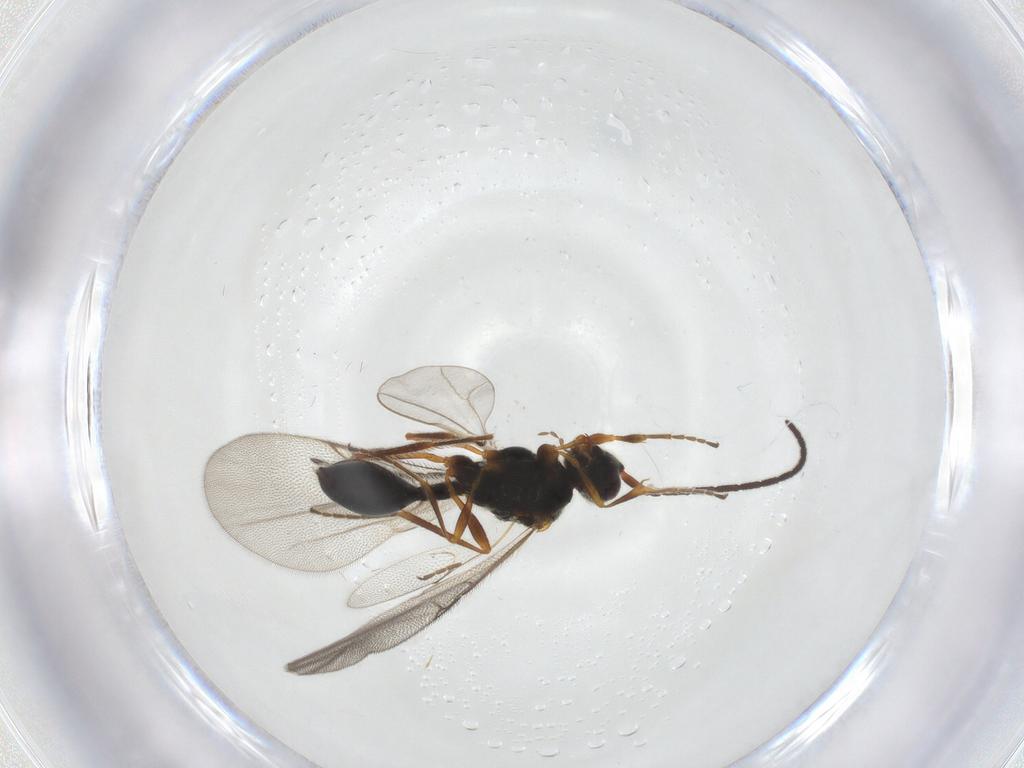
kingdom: Animalia
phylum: Arthropoda
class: Insecta
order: Hymenoptera
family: Diapriidae
